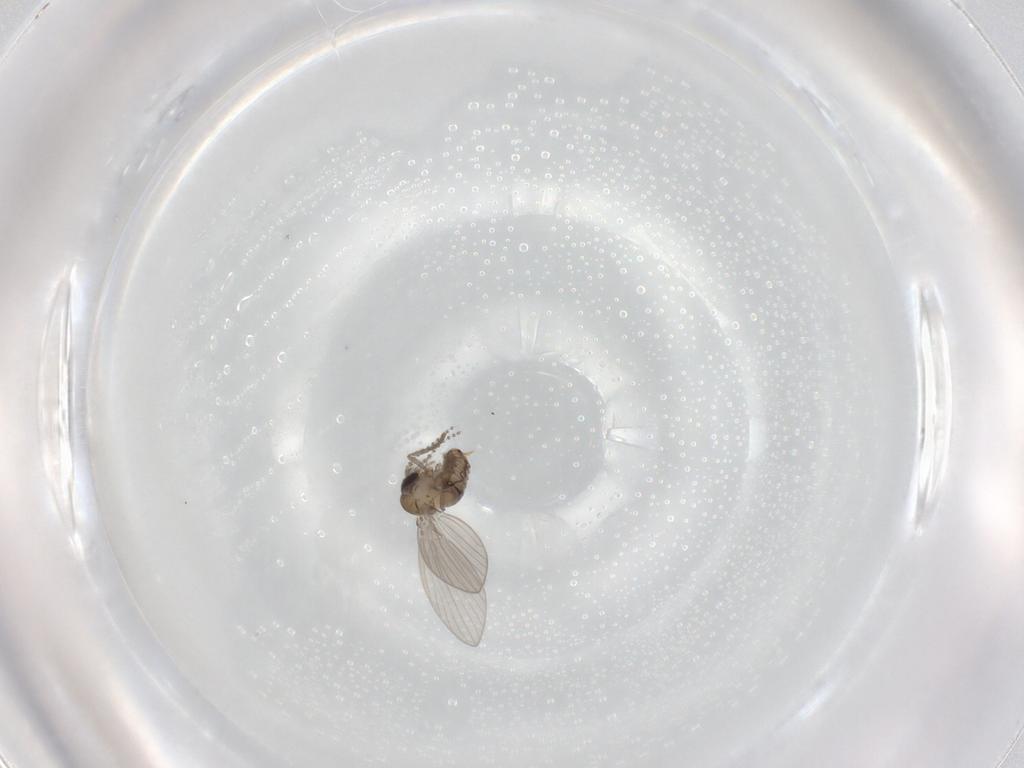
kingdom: Animalia
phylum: Arthropoda
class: Insecta
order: Diptera
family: Psychodidae
